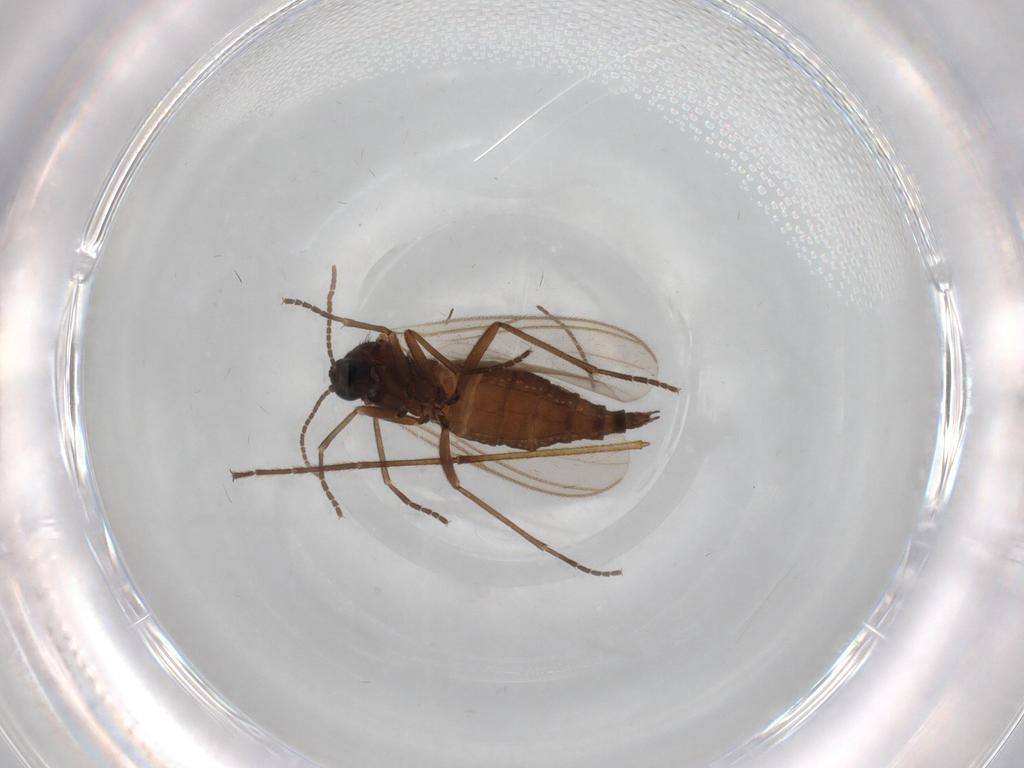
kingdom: Animalia
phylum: Arthropoda
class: Insecta
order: Diptera
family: Sciaridae
